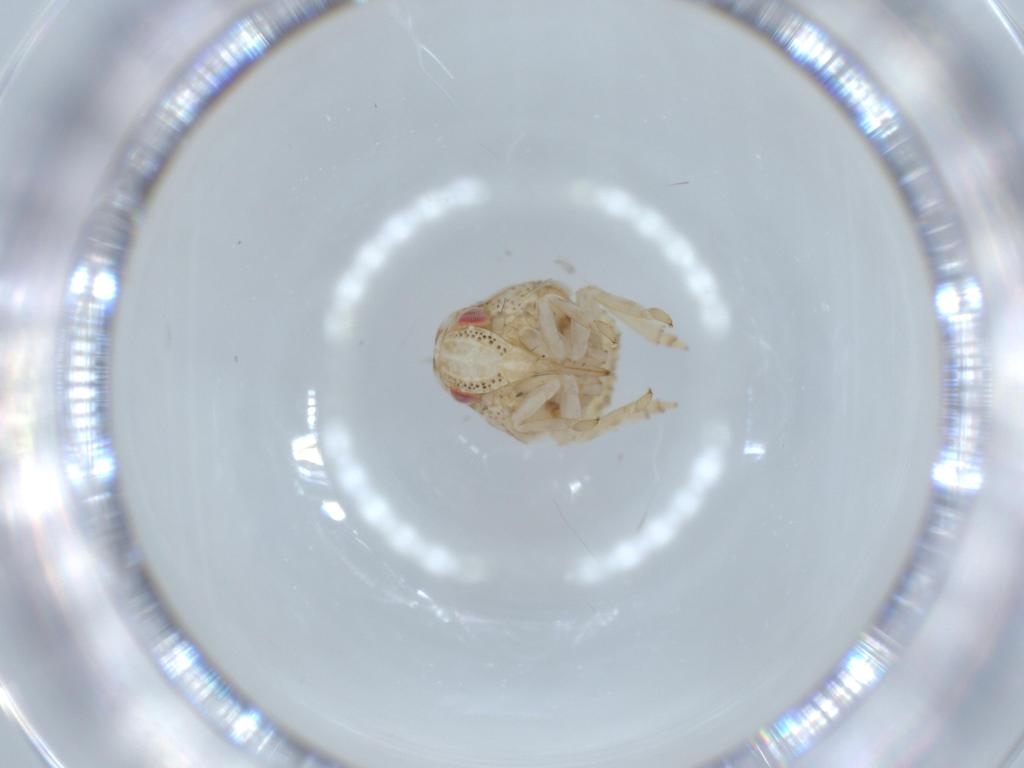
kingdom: Animalia
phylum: Arthropoda
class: Insecta
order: Hemiptera
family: Acanaloniidae
